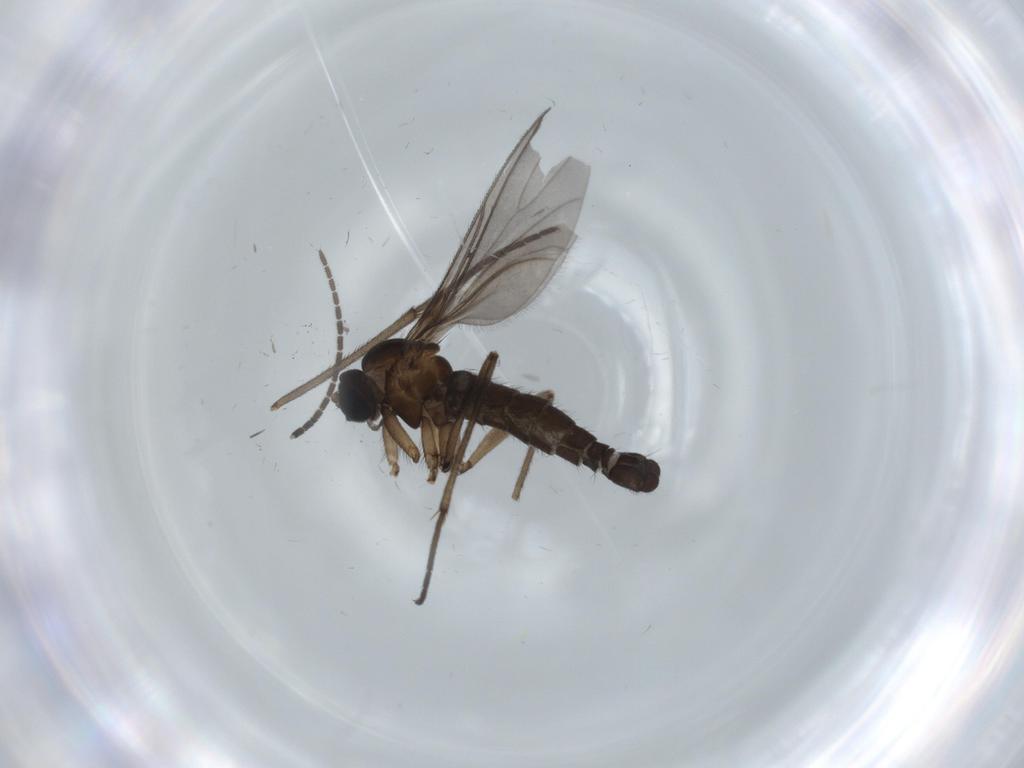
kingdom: Animalia
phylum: Arthropoda
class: Insecta
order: Diptera
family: Sciaridae
